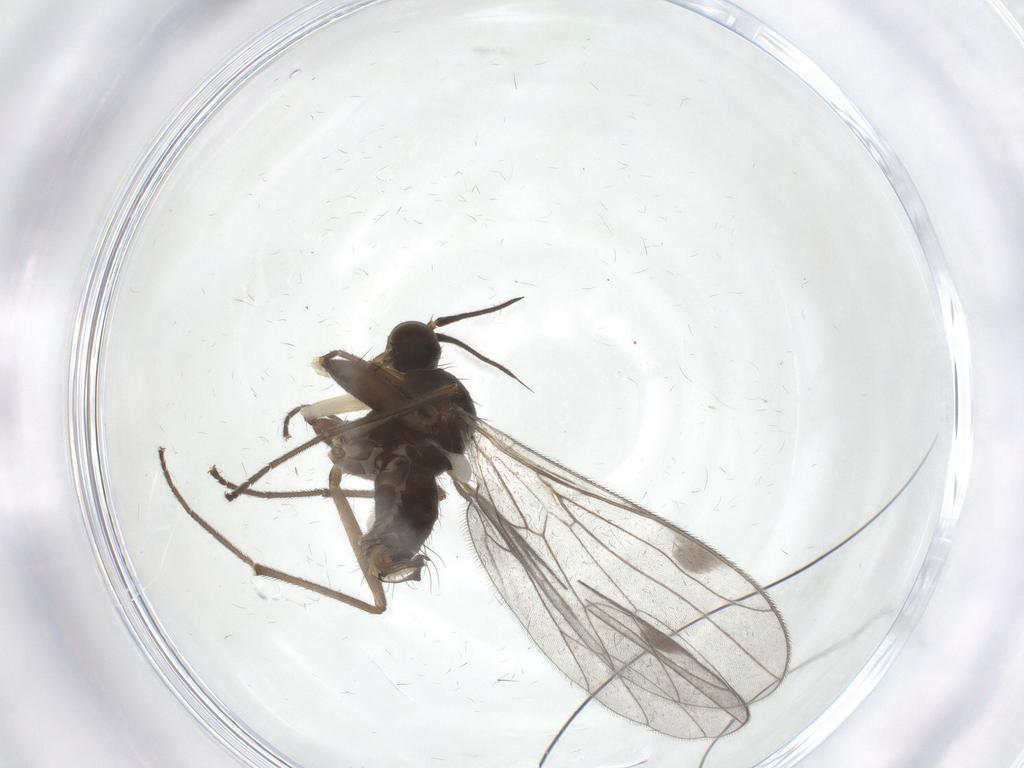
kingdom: Animalia
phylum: Arthropoda
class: Insecta
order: Diptera
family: Empididae
